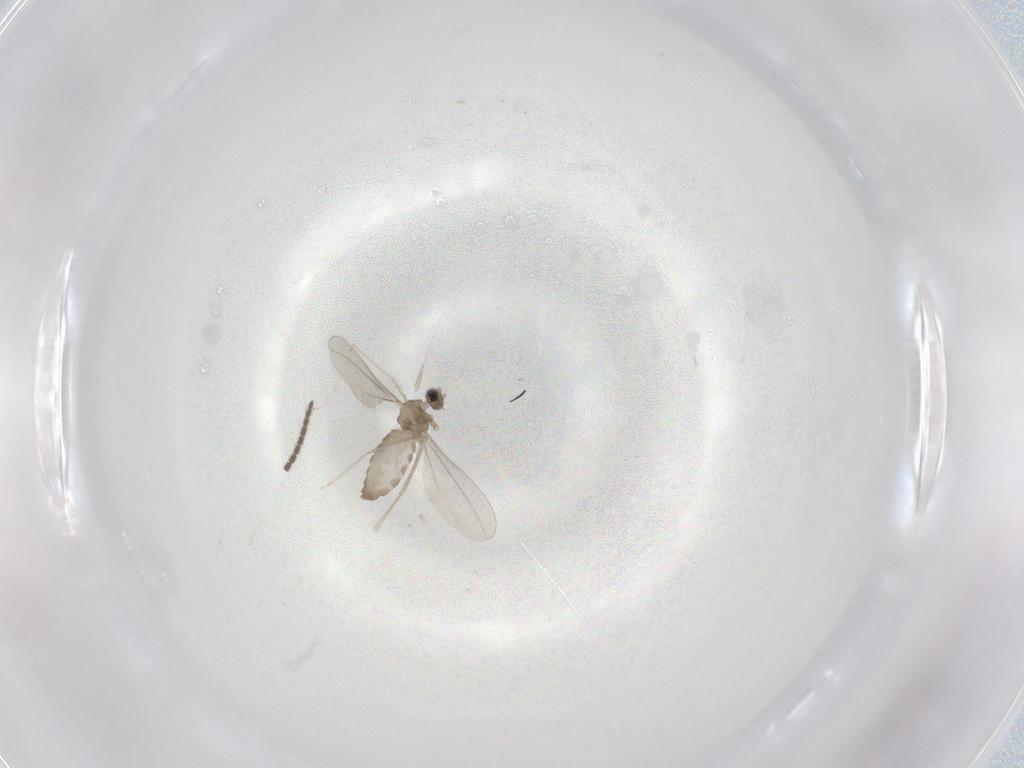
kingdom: Animalia
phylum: Arthropoda
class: Insecta
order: Diptera
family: Cecidomyiidae
